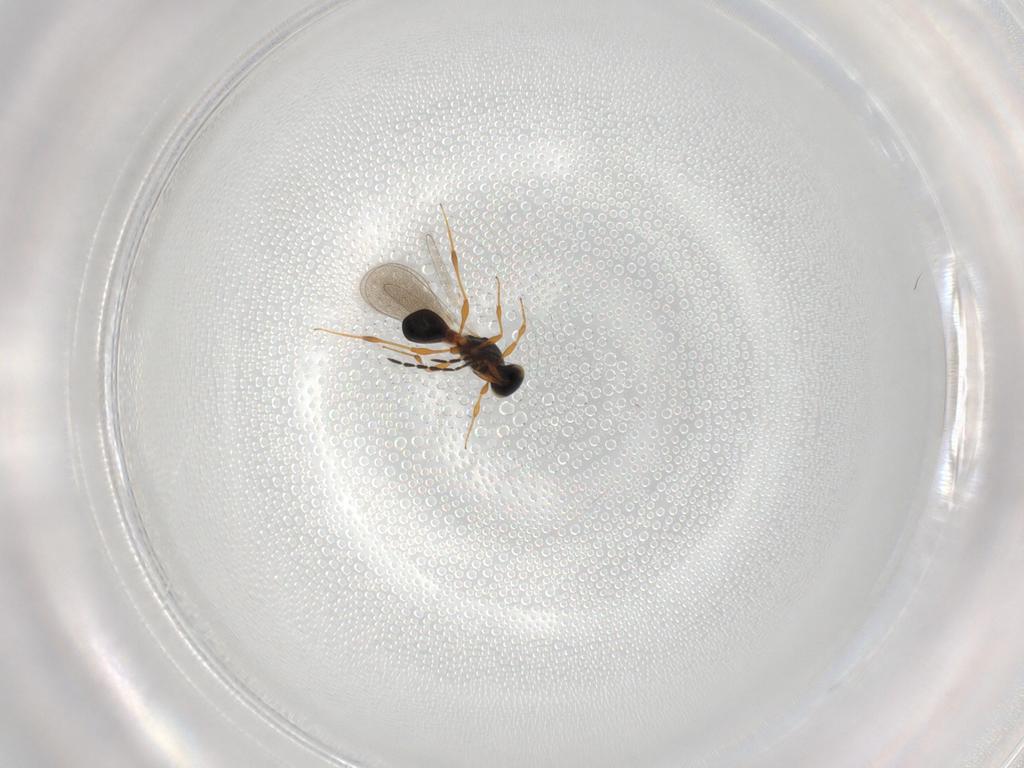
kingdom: Animalia
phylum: Arthropoda
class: Insecta
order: Hymenoptera
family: Platygastridae
